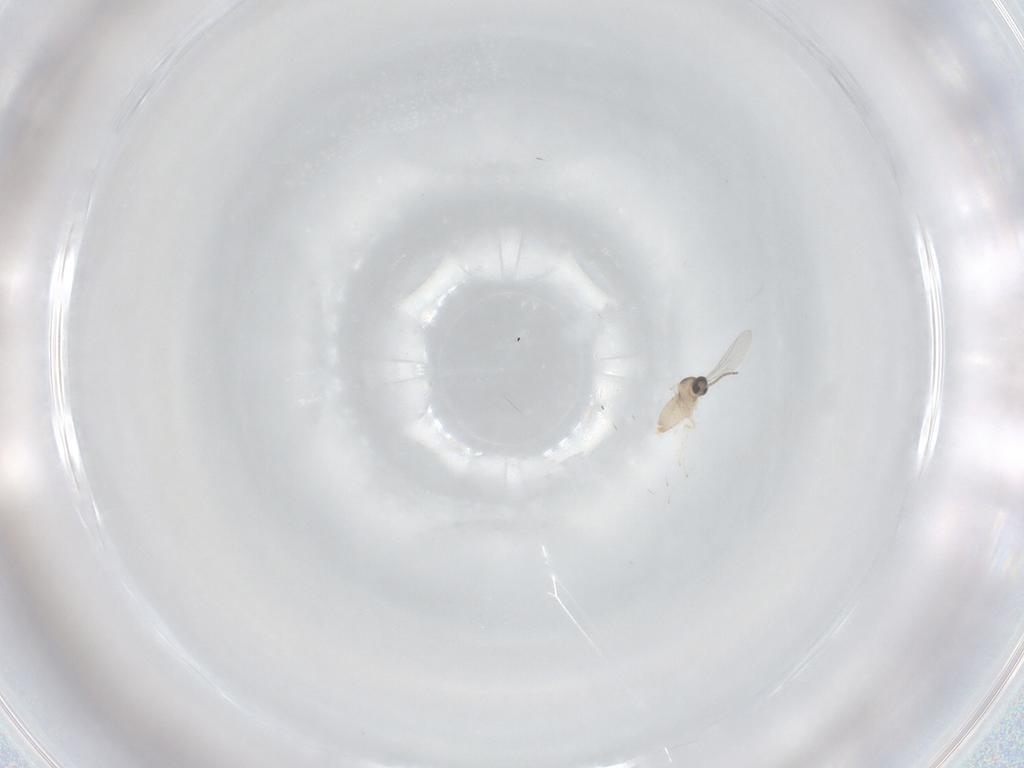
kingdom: Animalia
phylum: Arthropoda
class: Insecta
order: Diptera
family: Cecidomyiidae
